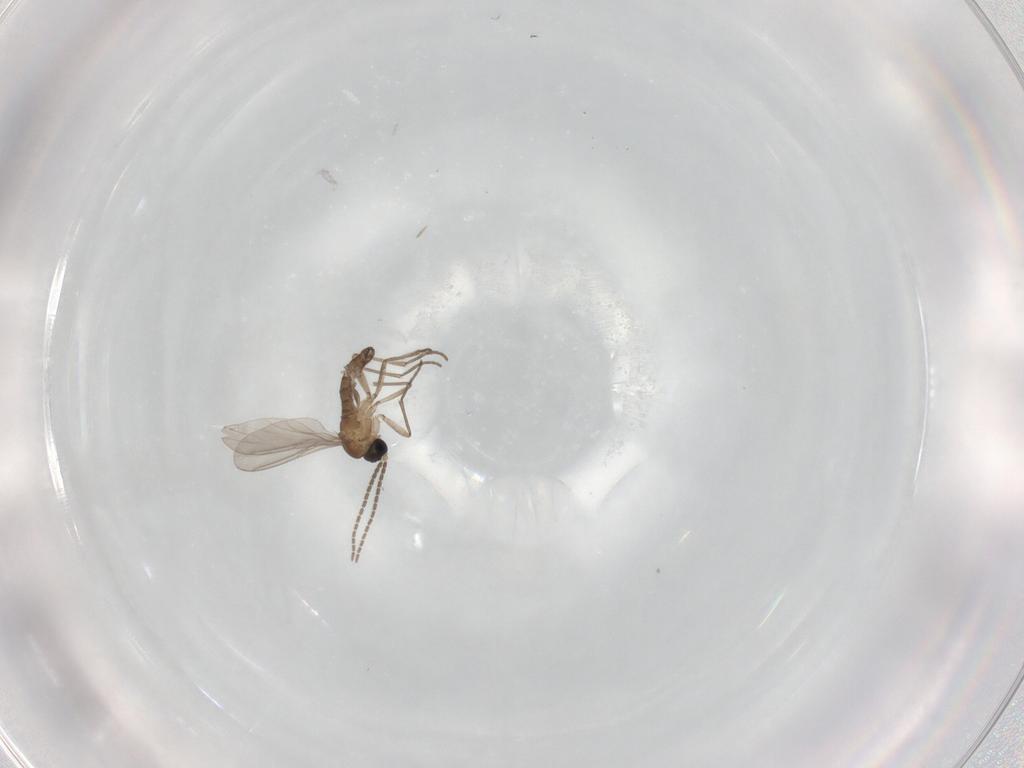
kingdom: Animalia
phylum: Arthropoda
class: Insecta
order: Diptera
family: Sciaridae
